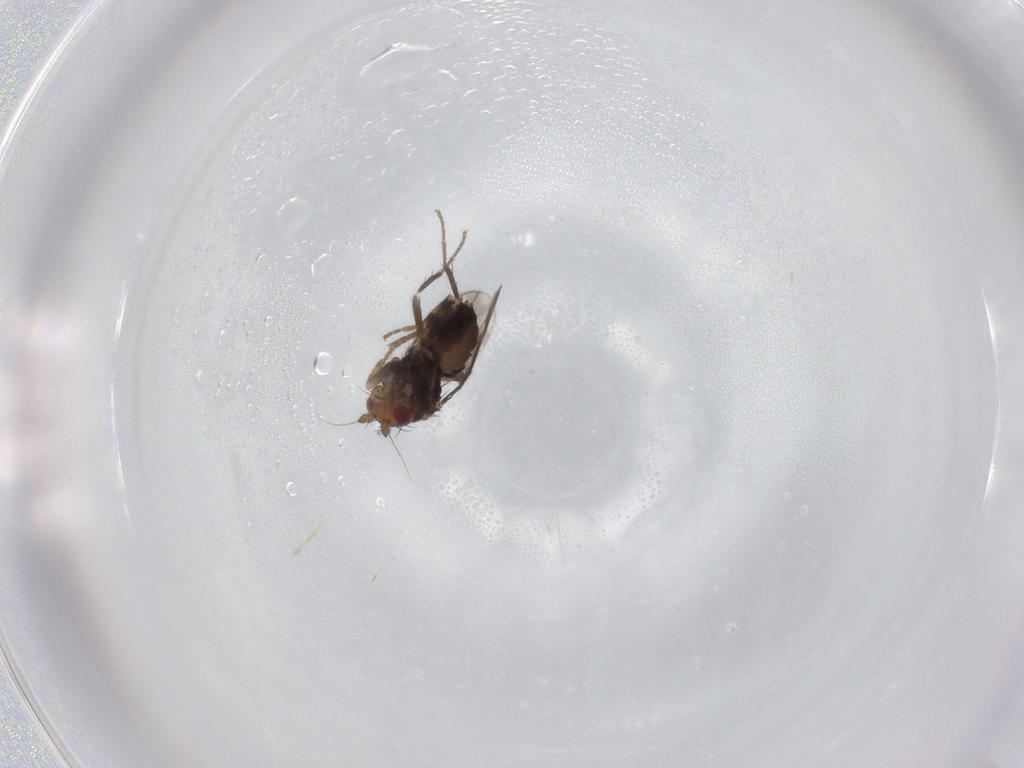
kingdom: Animalia
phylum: Arthropoda
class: Insecta
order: Diptera
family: Sphaeroceridae
